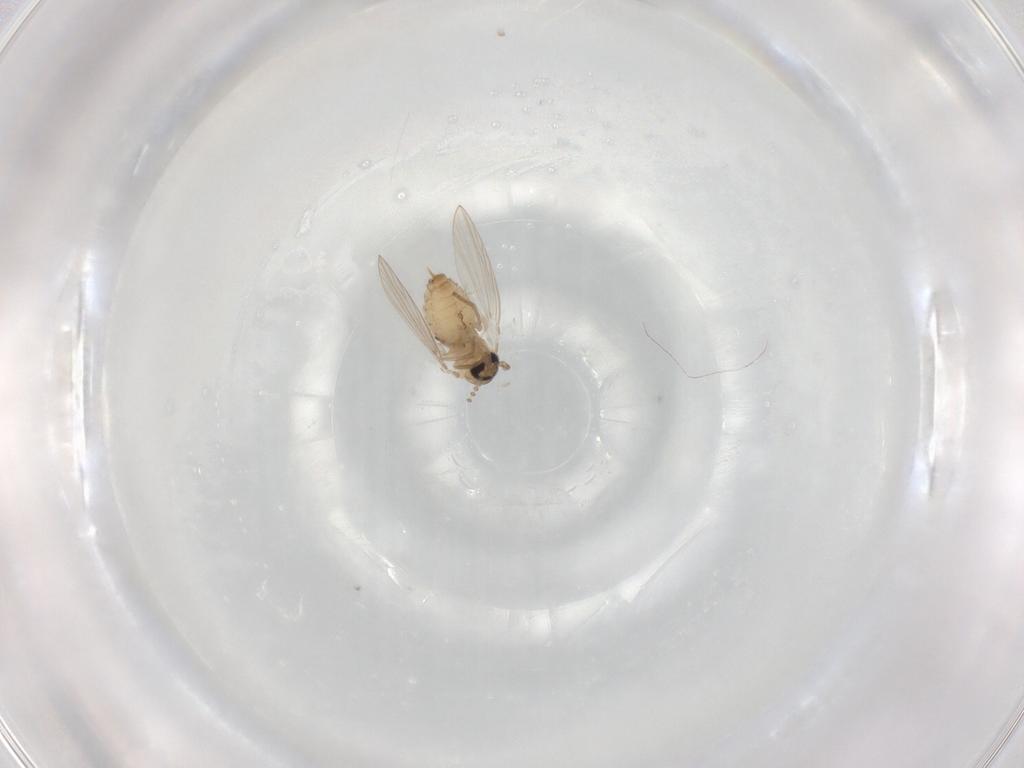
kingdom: Animalia
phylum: Arthropoda
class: Insecta
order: Diptera
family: Psychodidae
